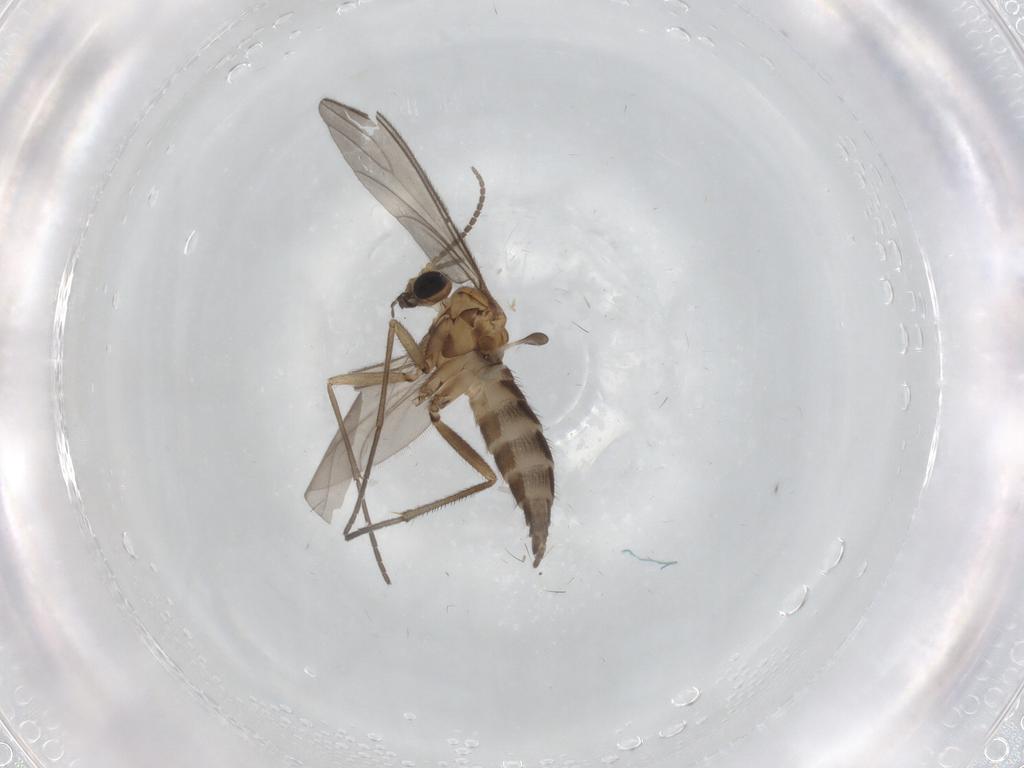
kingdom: Animalia
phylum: Arthropoda
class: Insecta
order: Diptera
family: Sciaridae
